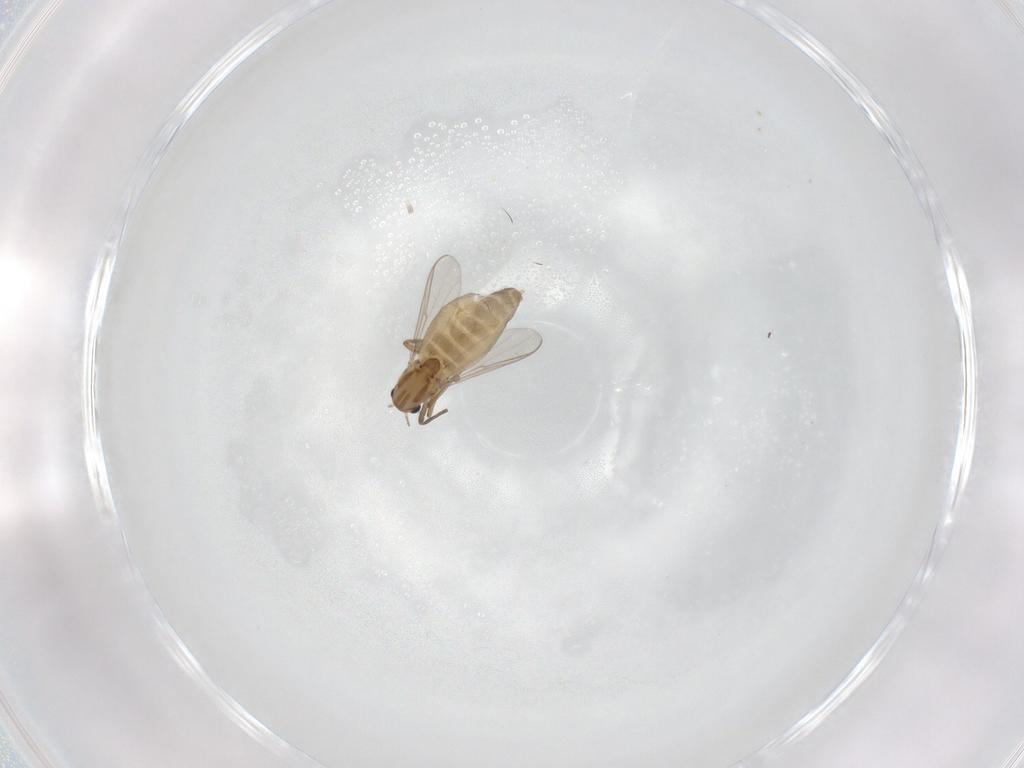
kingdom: Animalia
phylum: Arthropoda
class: Insecta
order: Diptera
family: Chironomidae
